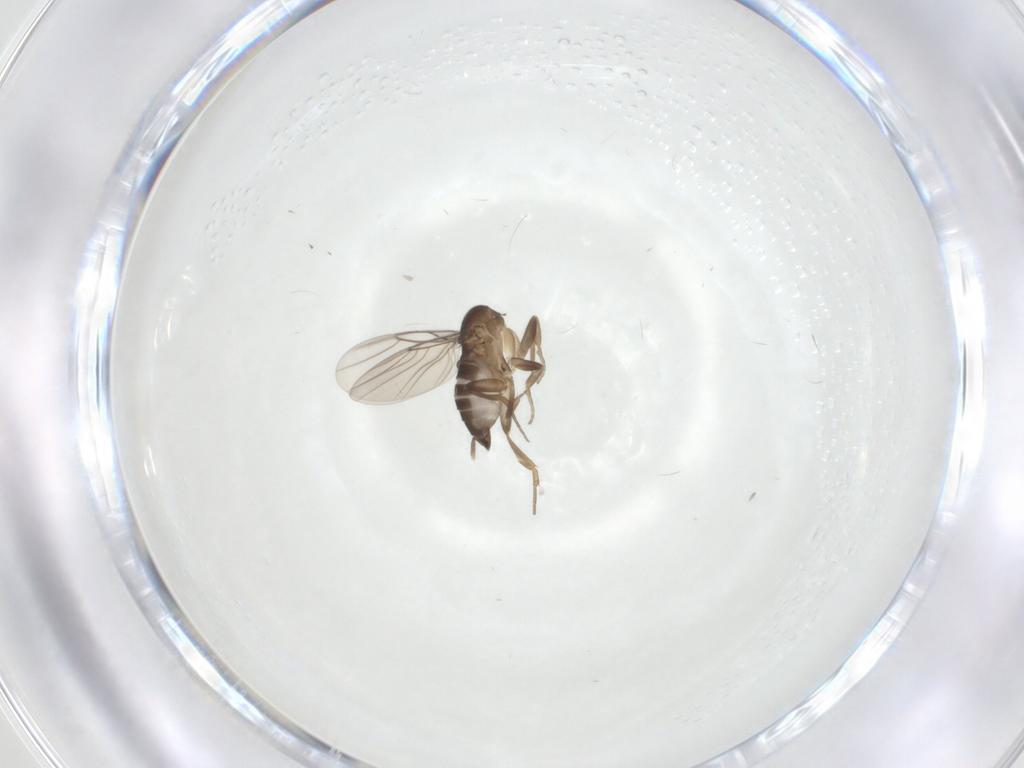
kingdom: Animalia
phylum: Arthropoda
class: Insecta
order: Diptera
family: Phoridae
